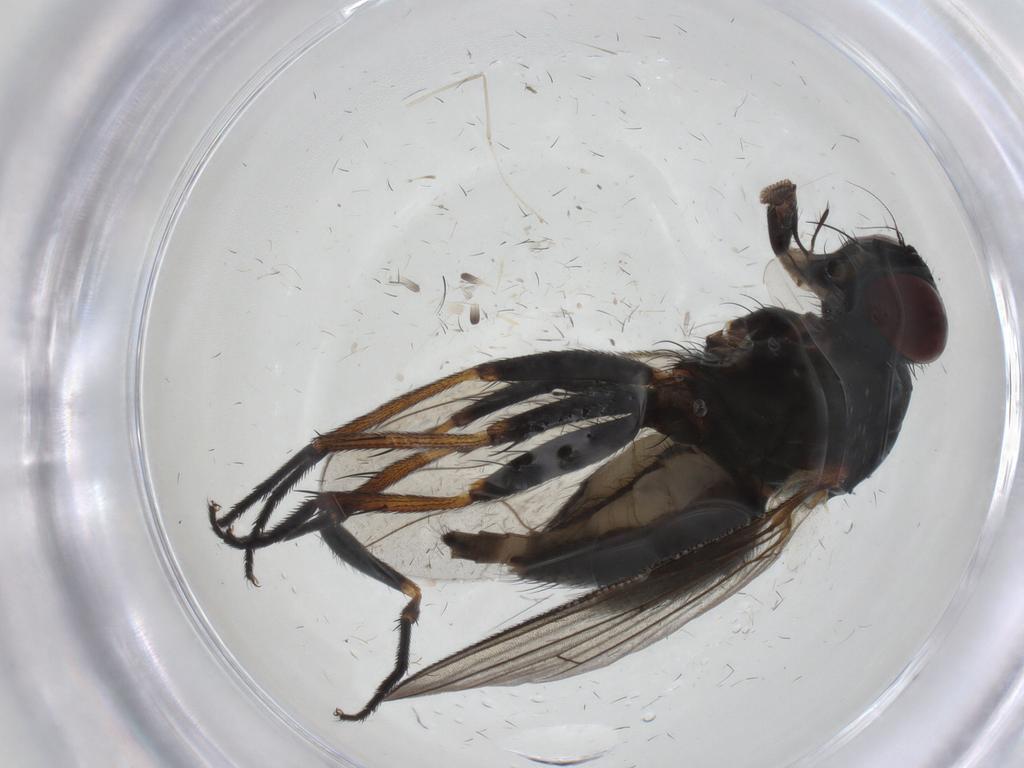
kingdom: Animalia
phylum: Arthropoda
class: Insecta
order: Diptera
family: Muscidae
